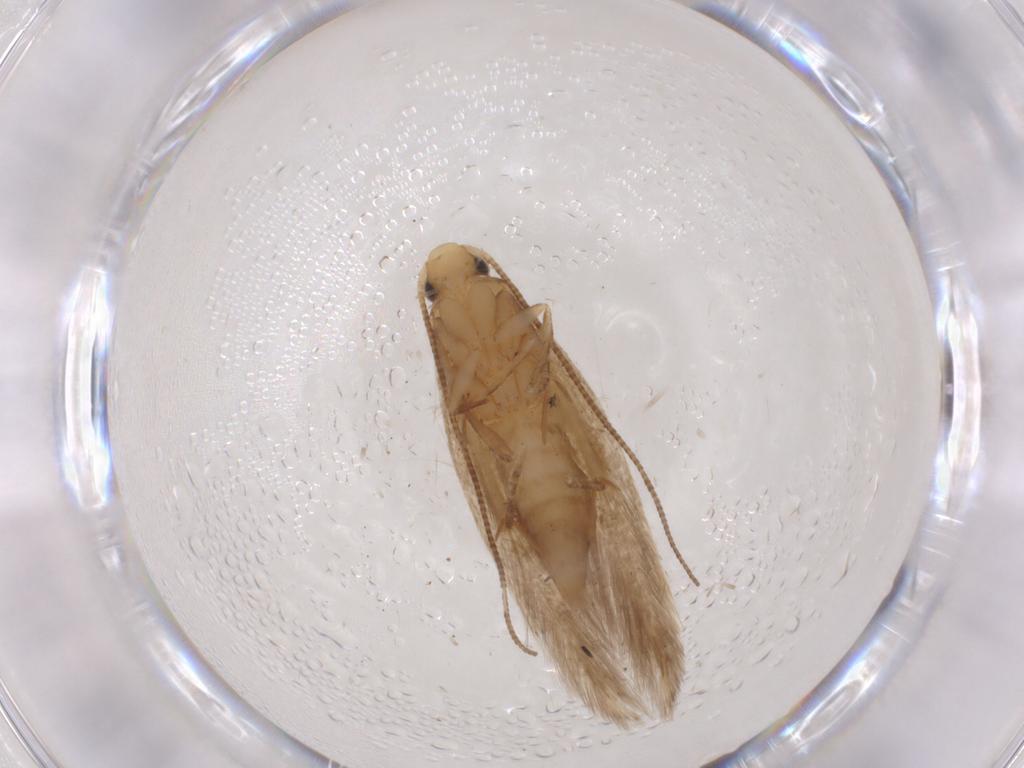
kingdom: Animalia
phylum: Arthropoda
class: Insecta
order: Lepidoptera
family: Tineidae
